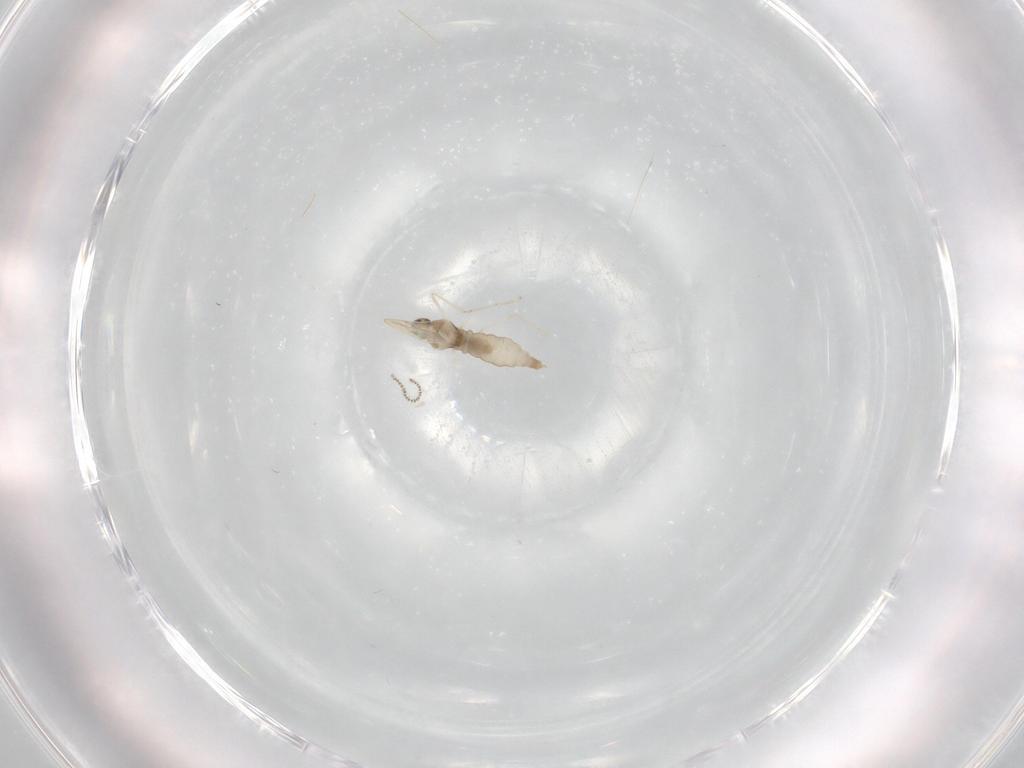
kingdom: Animalia
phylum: Arthropoda
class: Insecta
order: Diptera
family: Cecidomyiidae
